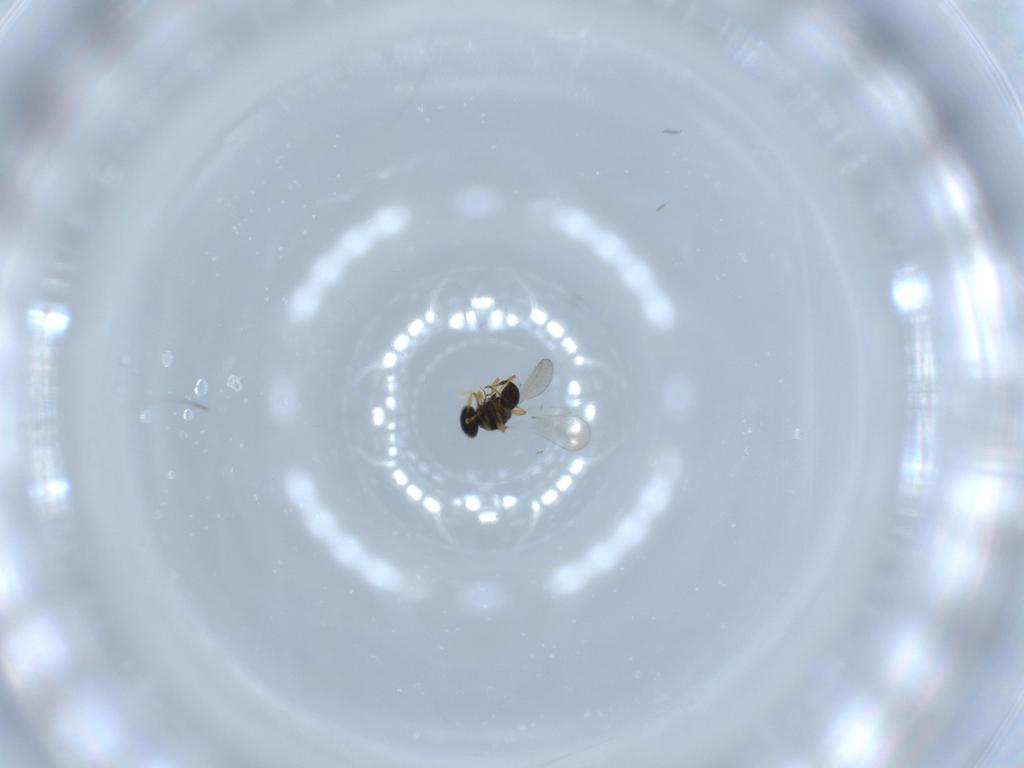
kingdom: Animalia
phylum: Arthropoda
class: Insecta
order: Hymenoptera
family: Platygastridae
